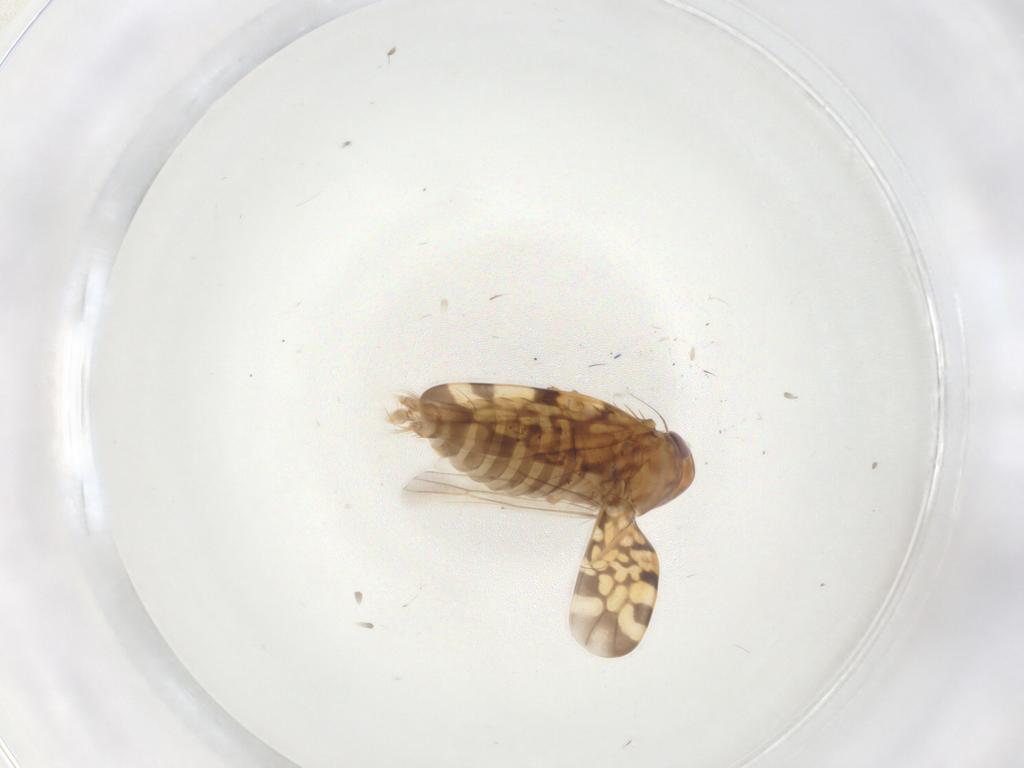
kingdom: Animalia
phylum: Arthropoda
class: Insecta
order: Hemiptera
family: Cicadellidae
